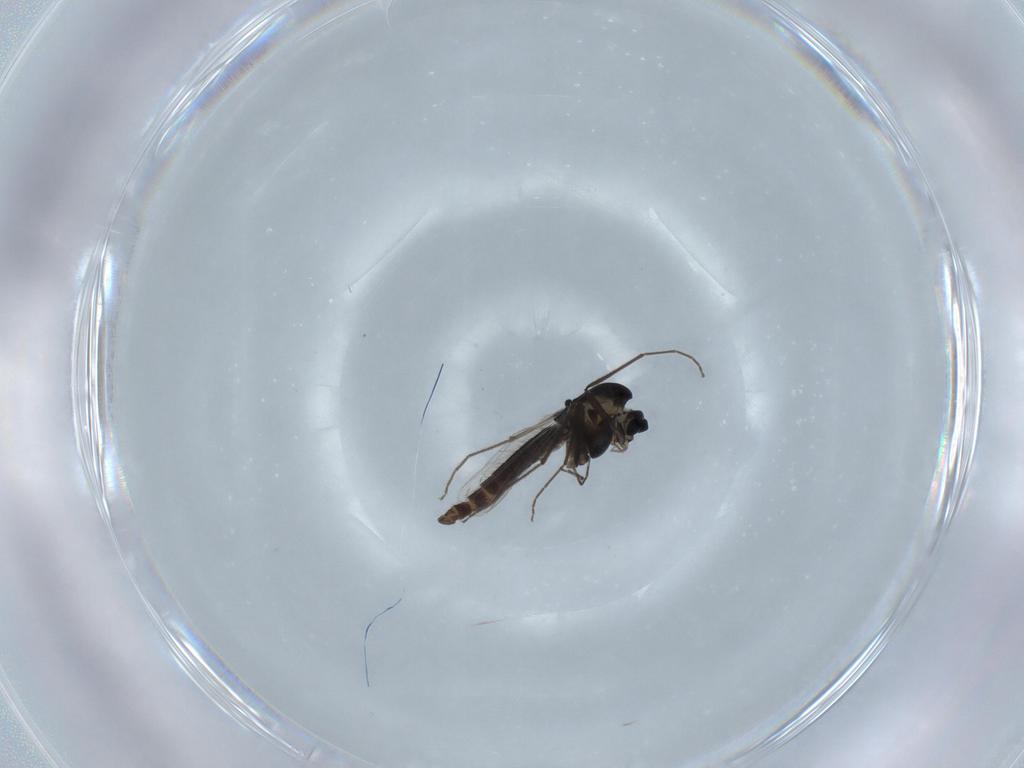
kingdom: Animalia
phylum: Arthropoda
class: Insecta
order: Diptera
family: Chironomidae
